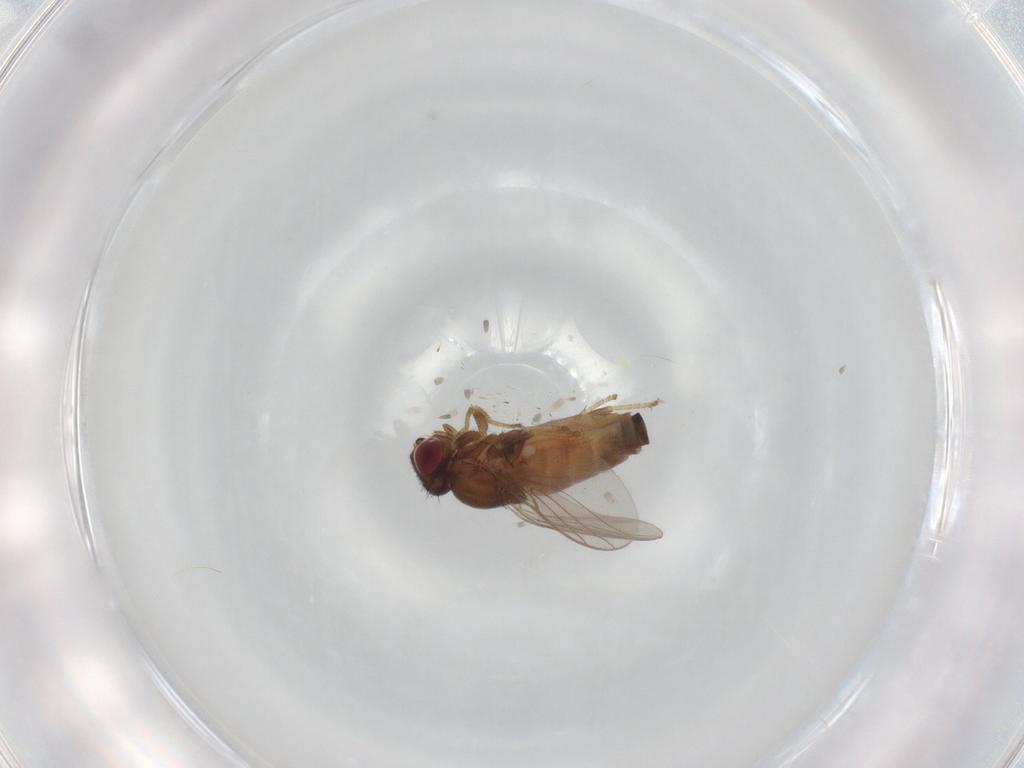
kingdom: Animalia
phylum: Arthropoda
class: Insecta
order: Diptera
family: Chloropidae
